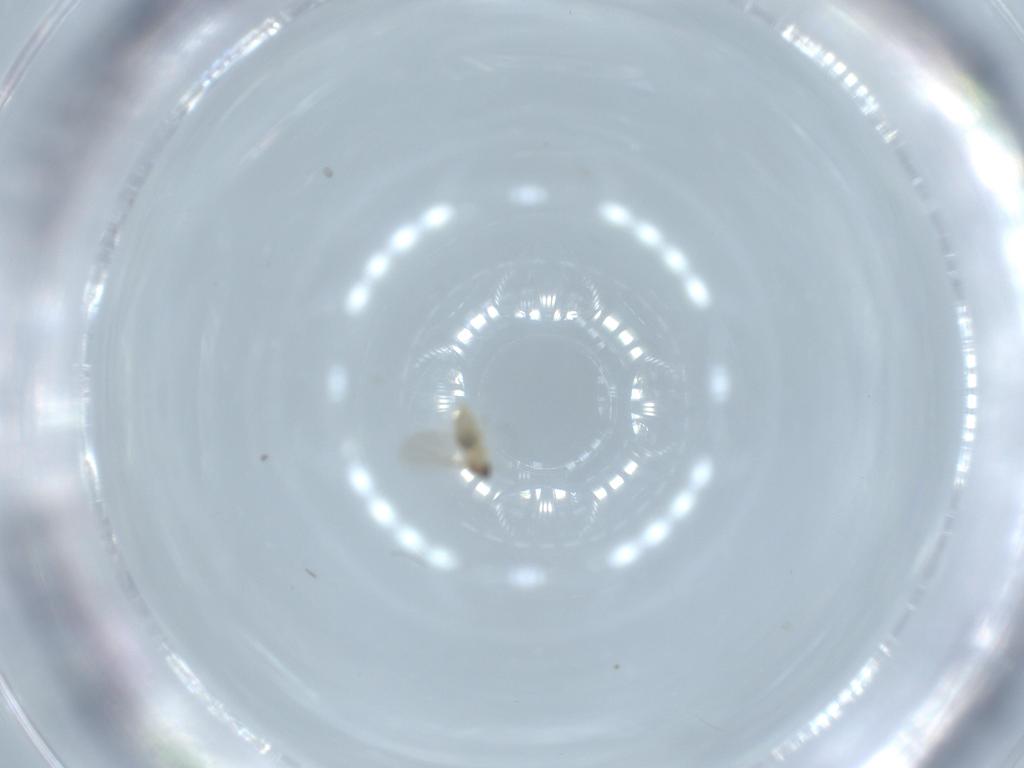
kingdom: Animalia
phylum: Arthropoda
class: Insecta
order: Diptera
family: Cecidomyiidae
